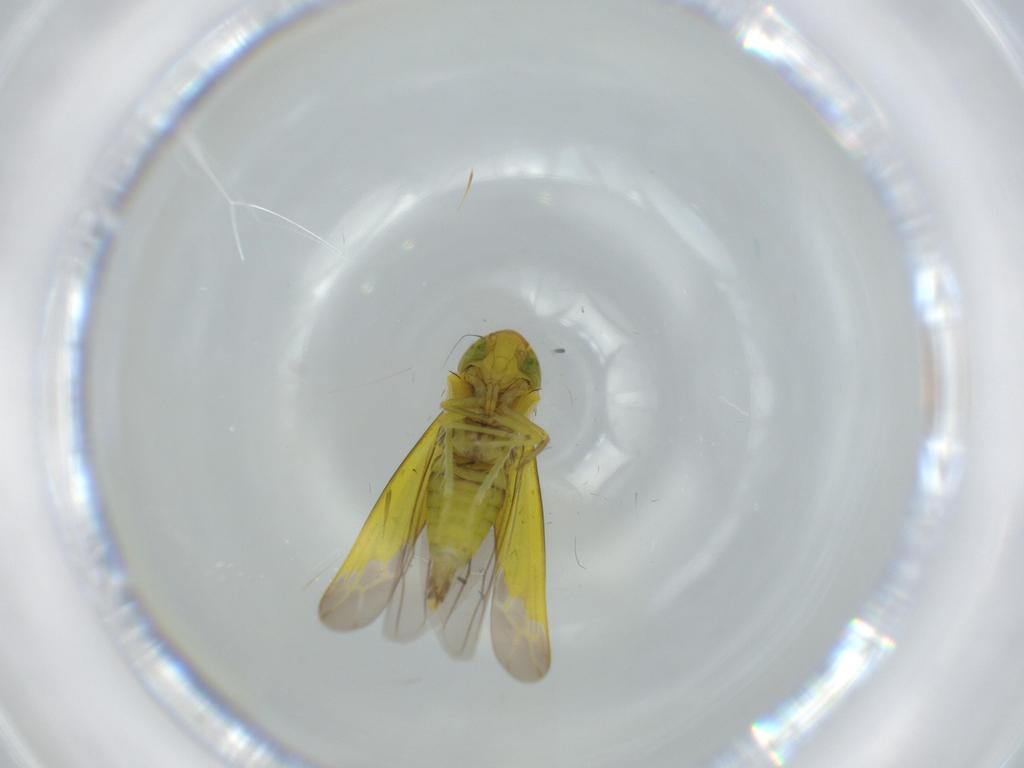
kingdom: Animalia
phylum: Arthropoda
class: Insecta
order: Hemiptera
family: Cicadellidae
